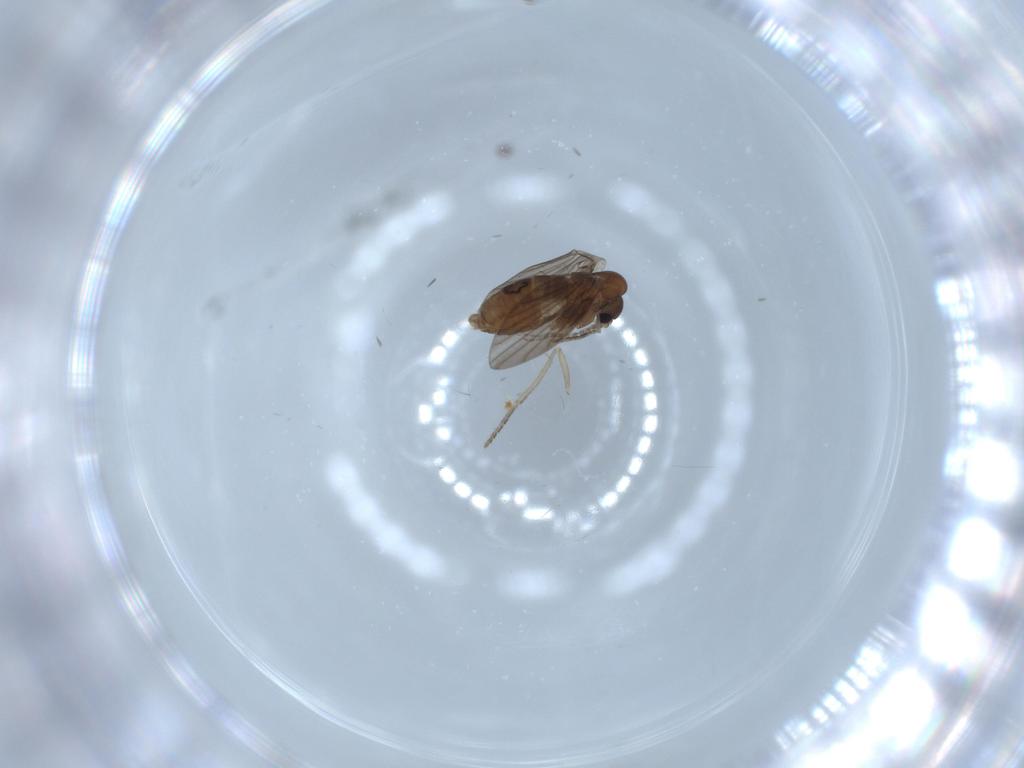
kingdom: Animalia
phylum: Arthropoda
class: Insecta
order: Diptera
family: Psychodidae
